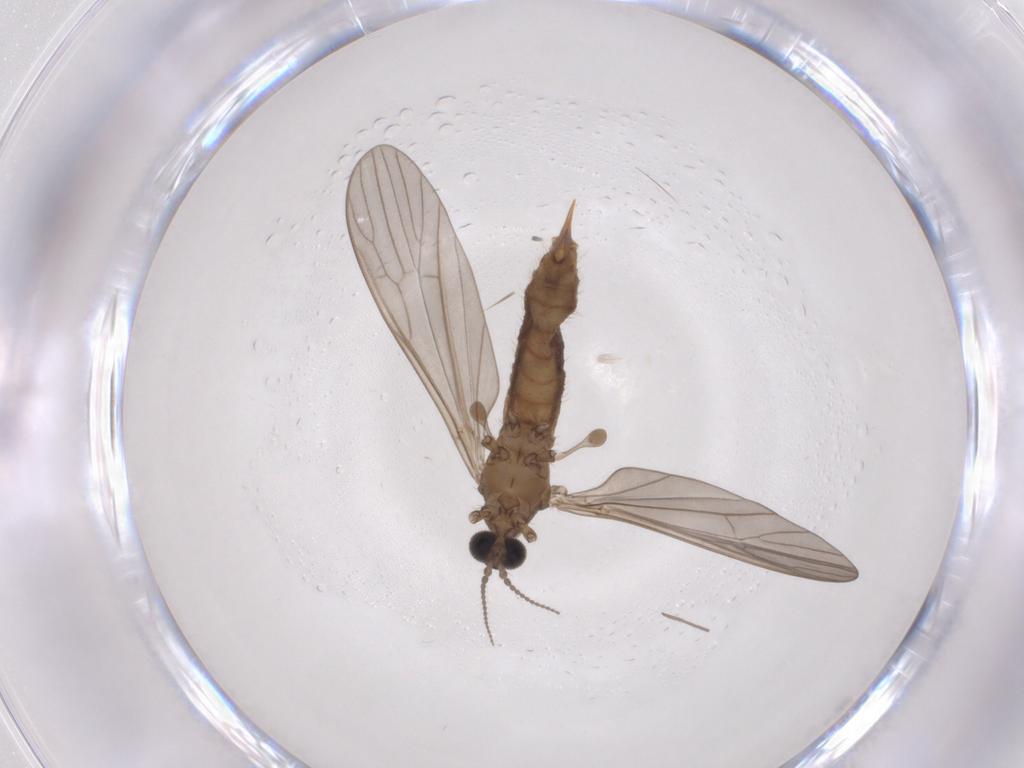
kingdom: Animalia
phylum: Arthropoda
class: Insecta
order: Diptera
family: Limoniidae
